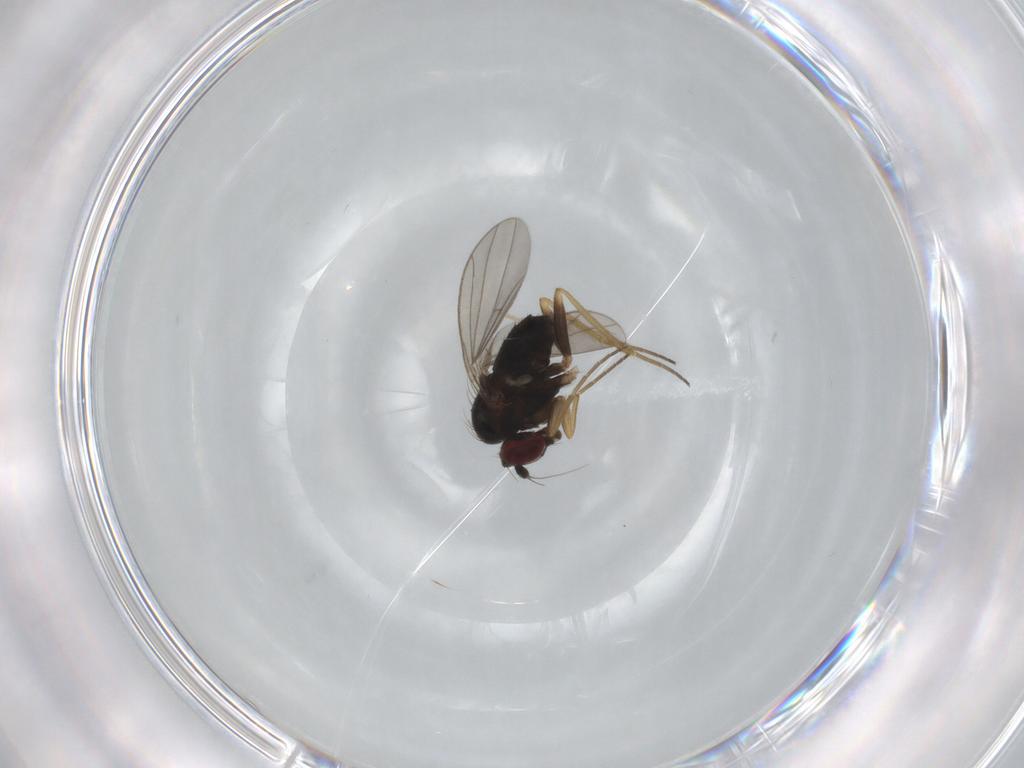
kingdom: Animalia
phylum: Arthropoda
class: Insecta
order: Diptera
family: Dolichopodidae
